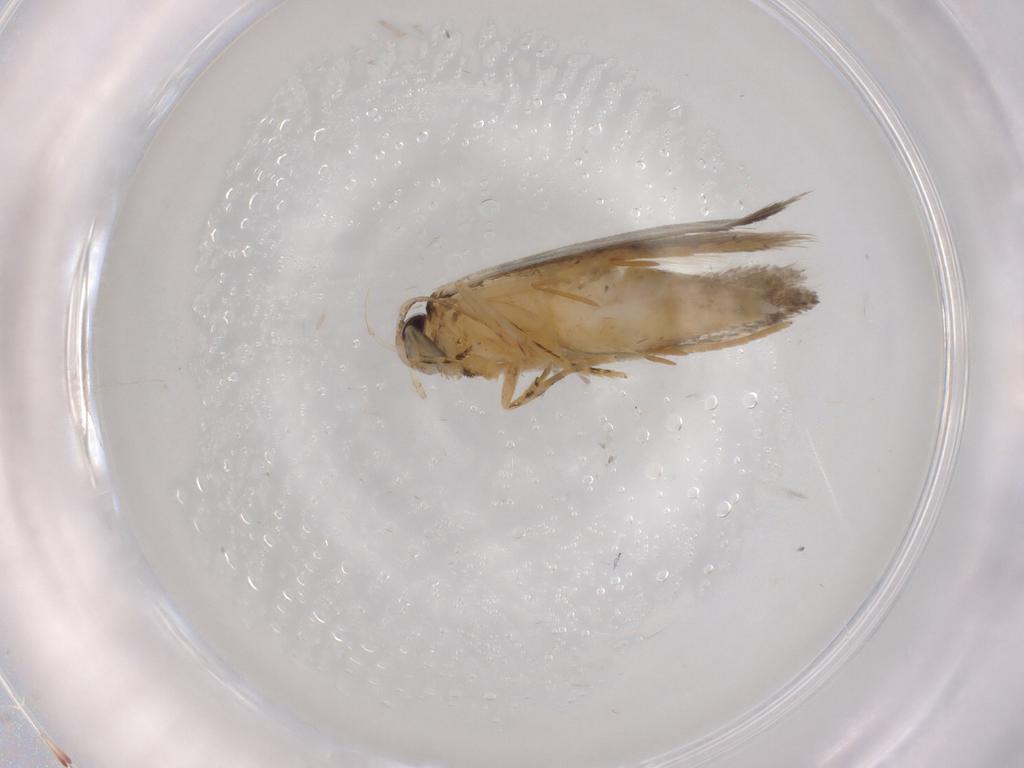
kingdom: Animalia
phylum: Arthropoda
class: Insecta
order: Lepidoptera
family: Autostichidae
